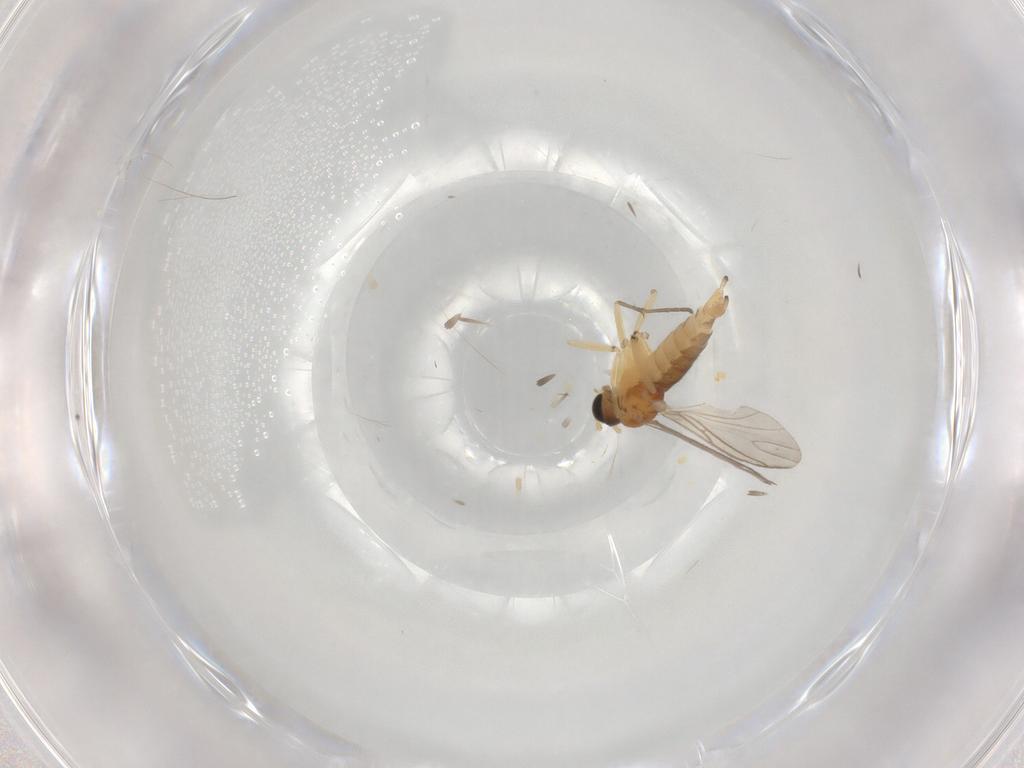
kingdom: Animalia
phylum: Arthropoda
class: Insecta
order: Diptera
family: Sciaridae
